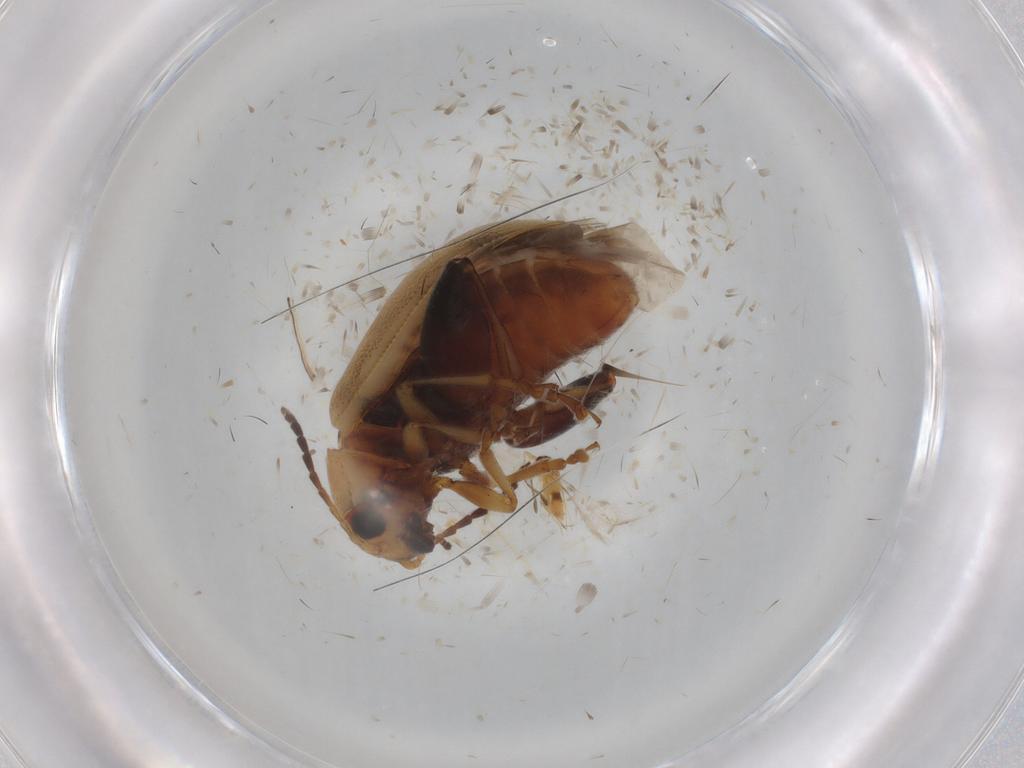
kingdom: Animalia
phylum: Arthropoda
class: Insecta
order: Coleoptera
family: Chrysomelidae
